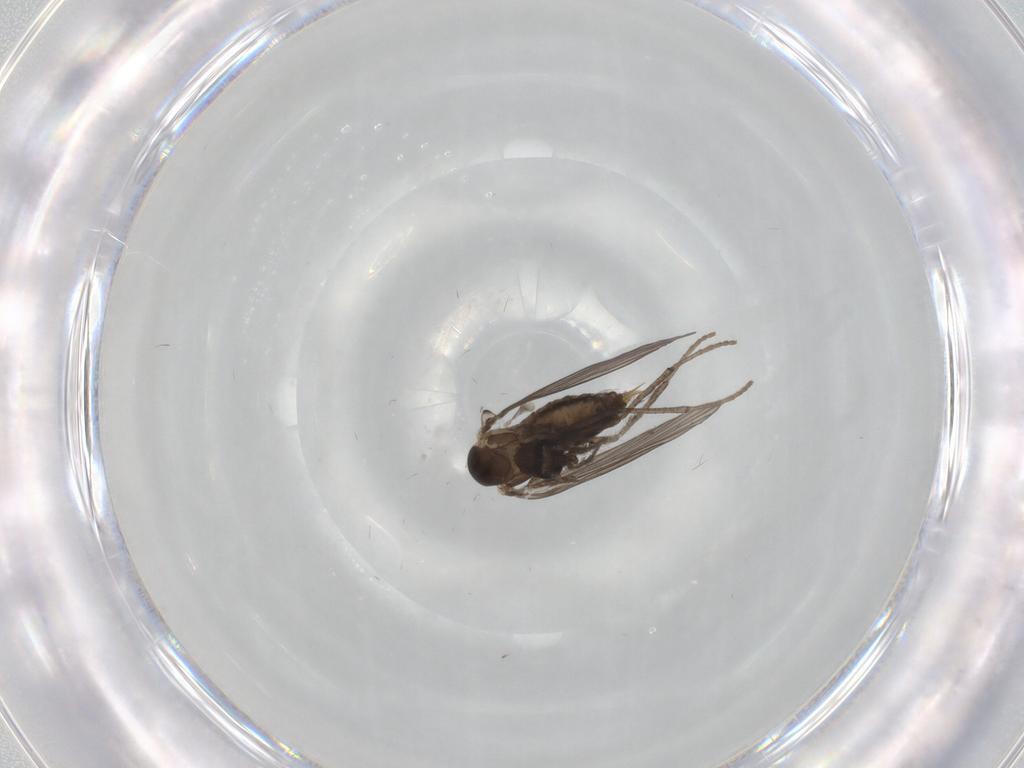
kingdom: Animalia
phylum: Arthropoda
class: Insecta
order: Diptera
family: Psychodidae
